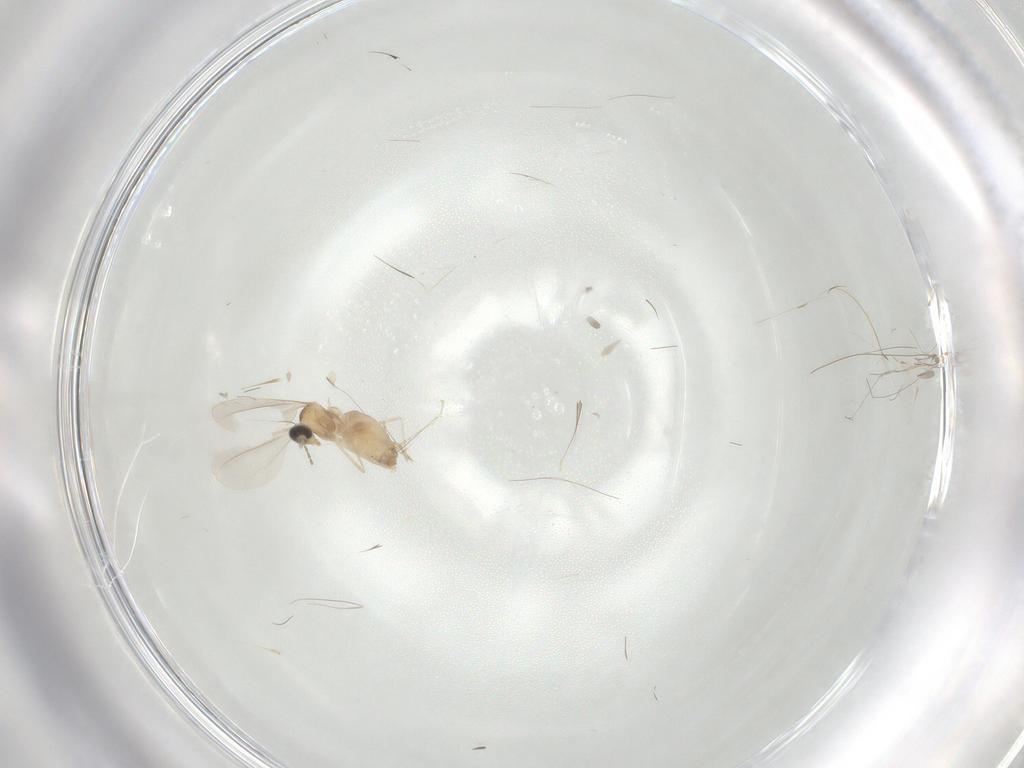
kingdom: Animalia
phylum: Arthropoda
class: Insecta
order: Diptera
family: Cecidomyiidae
